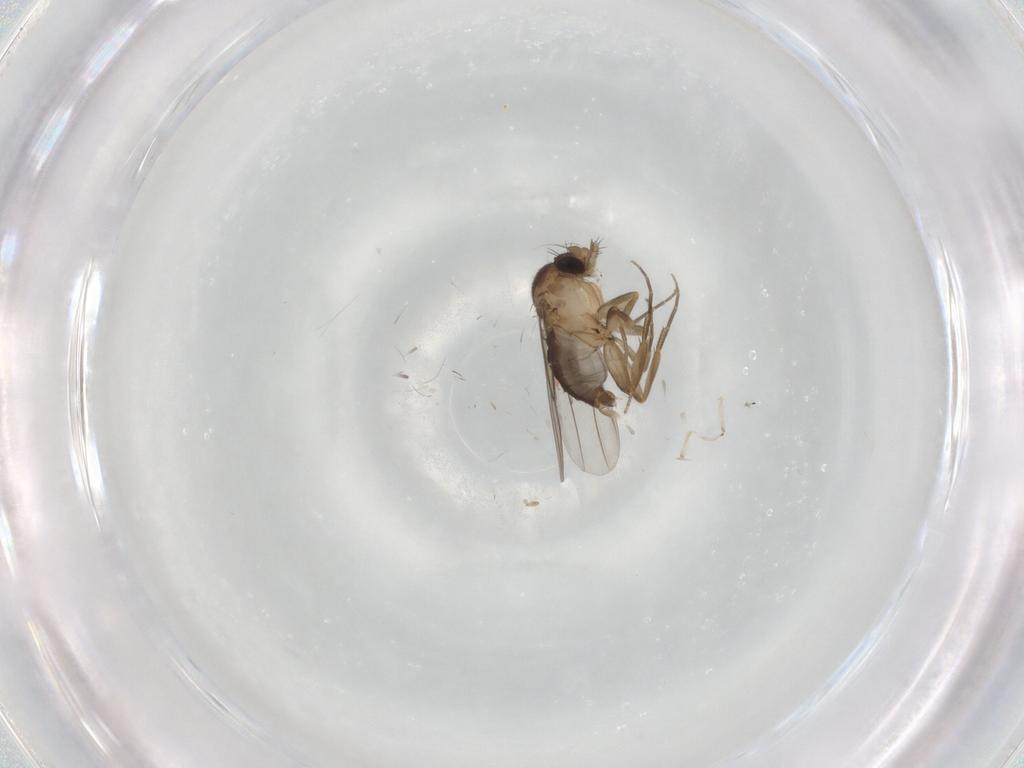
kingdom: Animalia
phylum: Arthropoda
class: Insecta
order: Diptera
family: Phoridae
